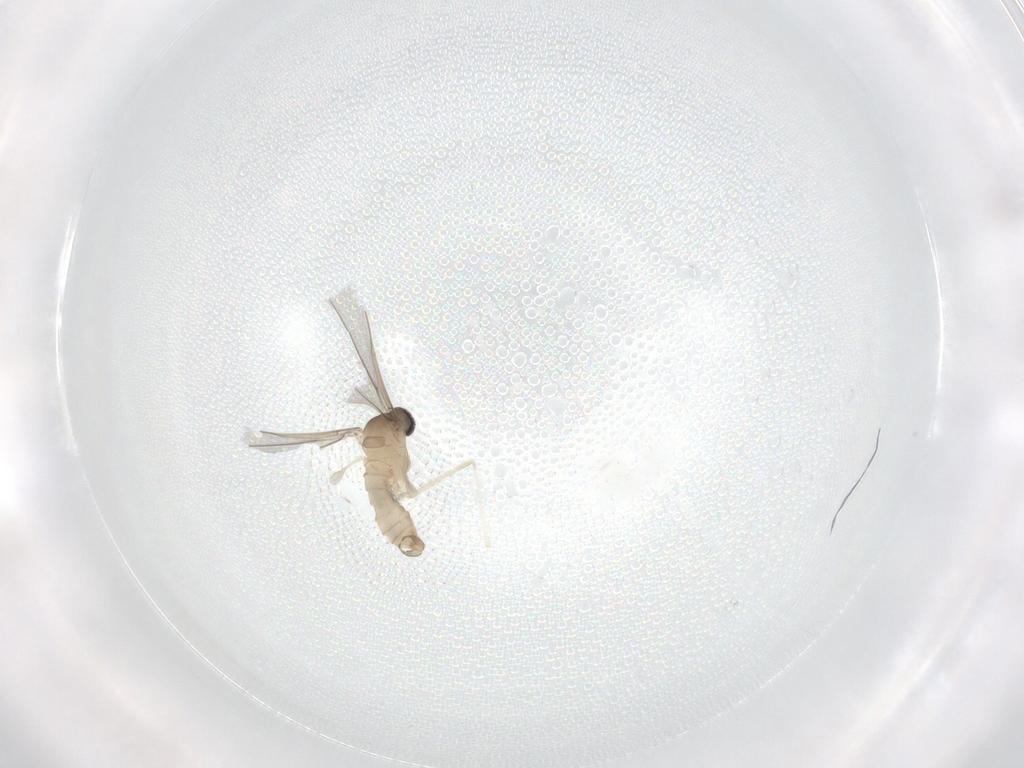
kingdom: Animalia
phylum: Arthropoda
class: Insecta
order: Diptera
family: Cecidomyiidae
